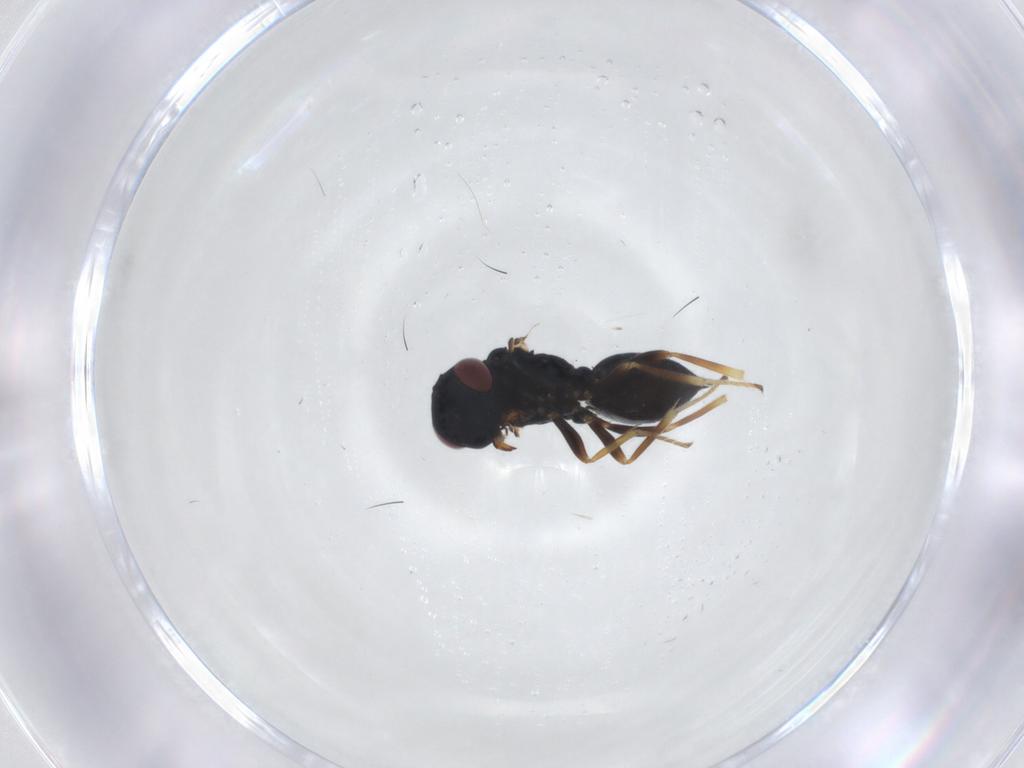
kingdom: Animalia
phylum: Arthropoda
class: Insecta
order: Hymenoptera
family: Pteromalidae
